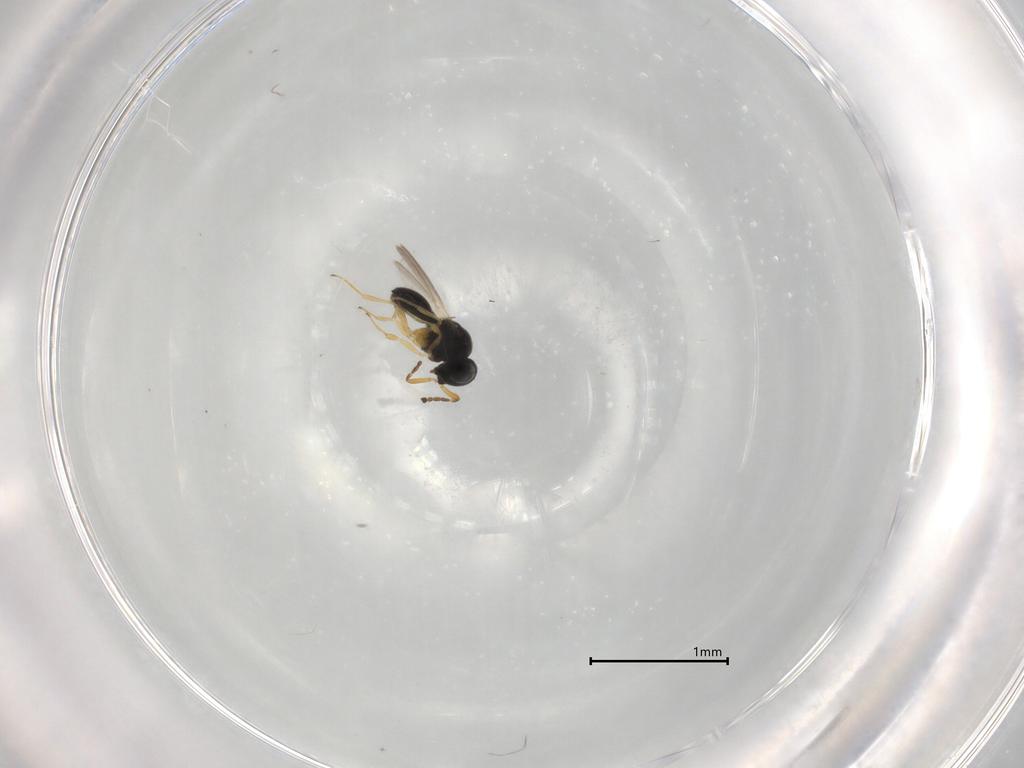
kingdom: Animalia
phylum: Arthropoda
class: Insecta
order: Hymenoptera
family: Scelionidae
